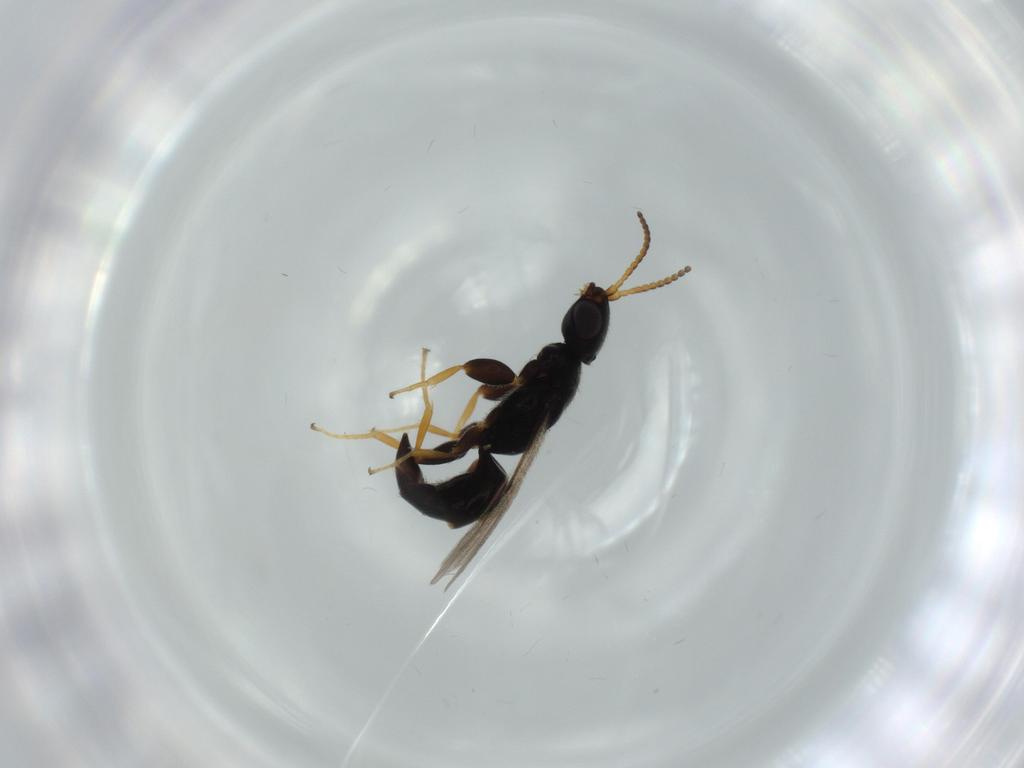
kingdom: Animalia
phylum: Arthropoda
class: Insecta
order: Hymenoptera
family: Bethylidae
